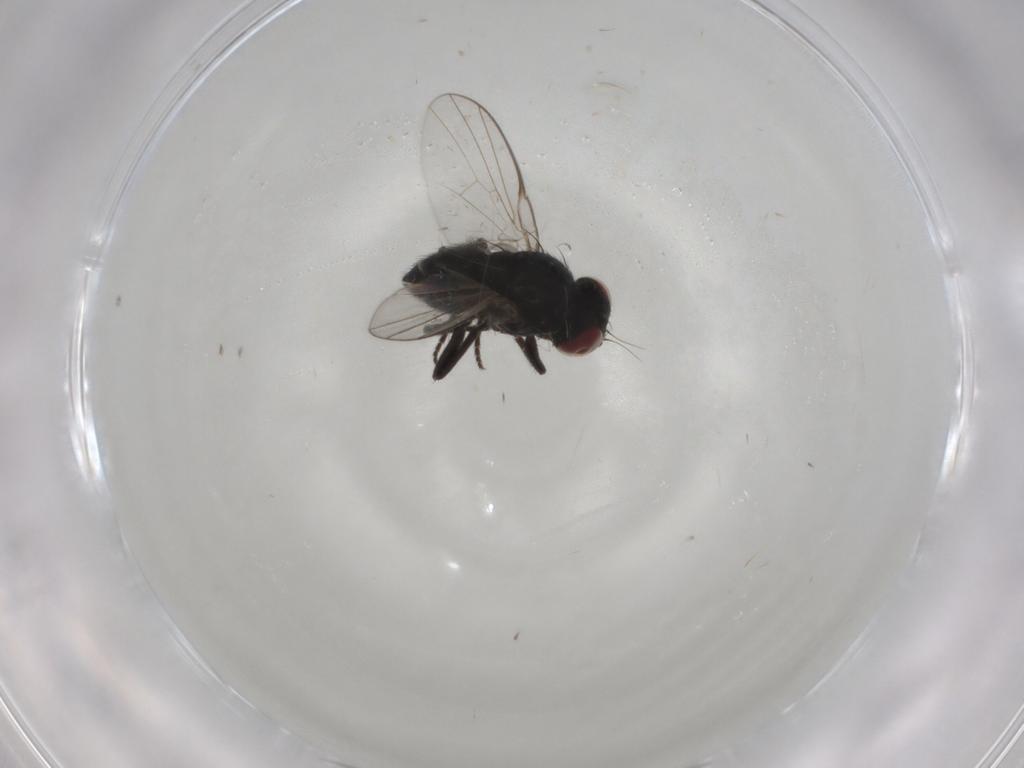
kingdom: Animalia
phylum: Arthropoda
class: Insecta
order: Diptera
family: Agromyzidae
